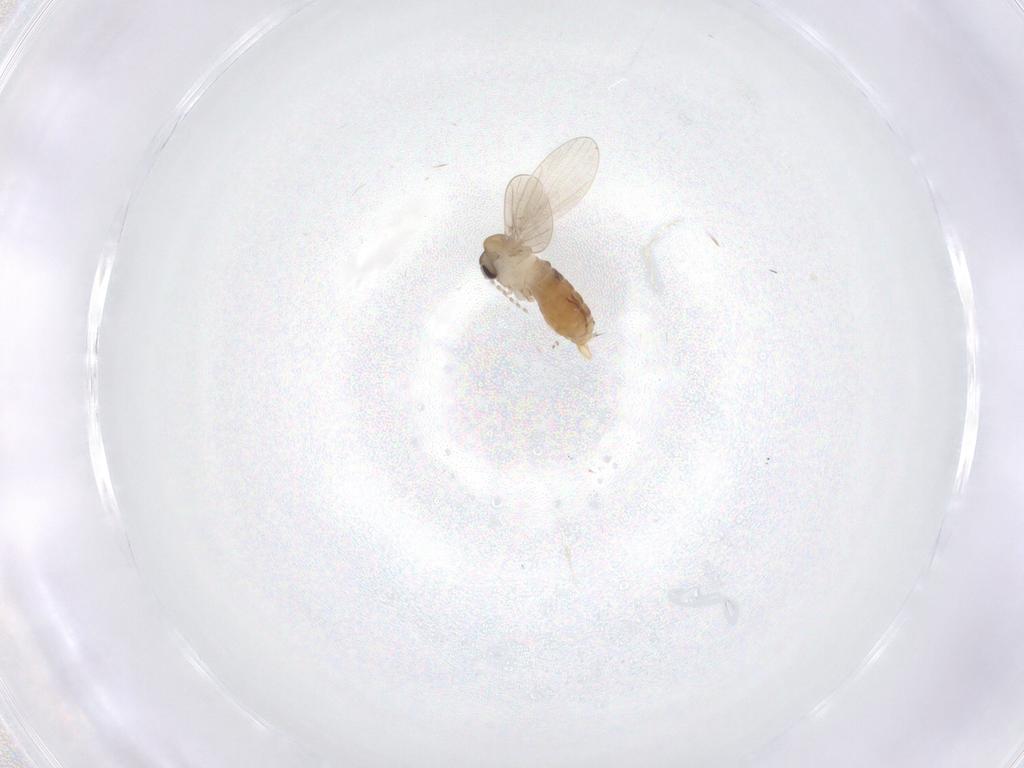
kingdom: Animalia
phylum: Arthropoda
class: Insecta
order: Diptera
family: Psychodidae
